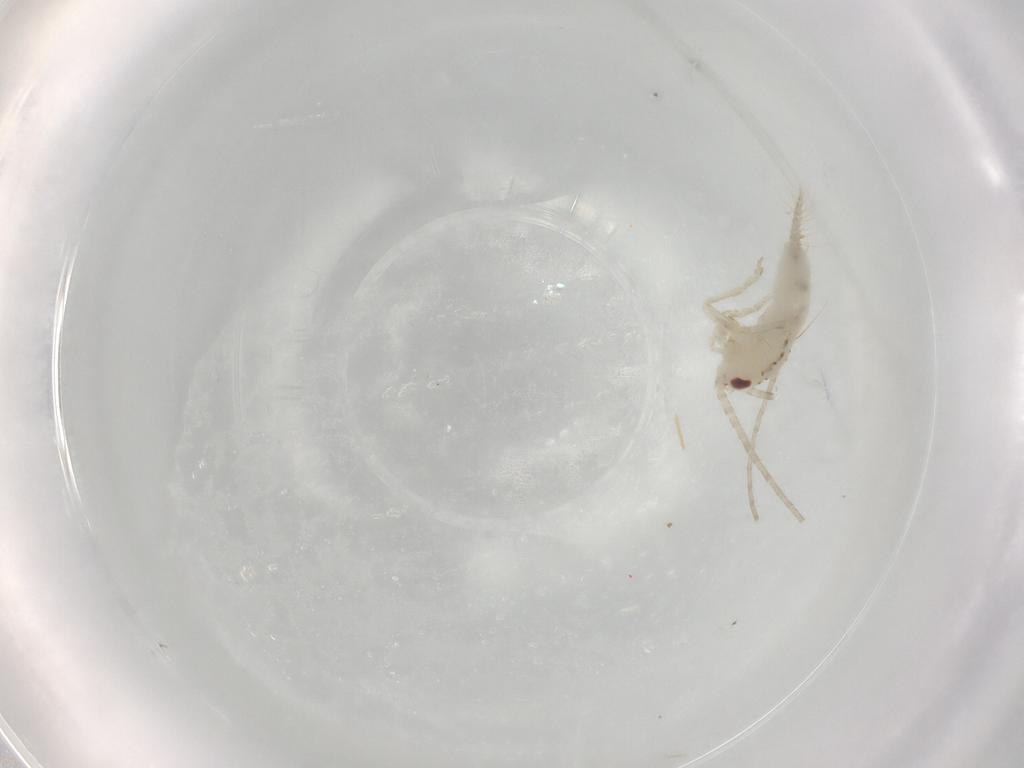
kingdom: Animalia
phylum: Arthropoda
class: Insecta
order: Orthoptera
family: Trigonidiidae
